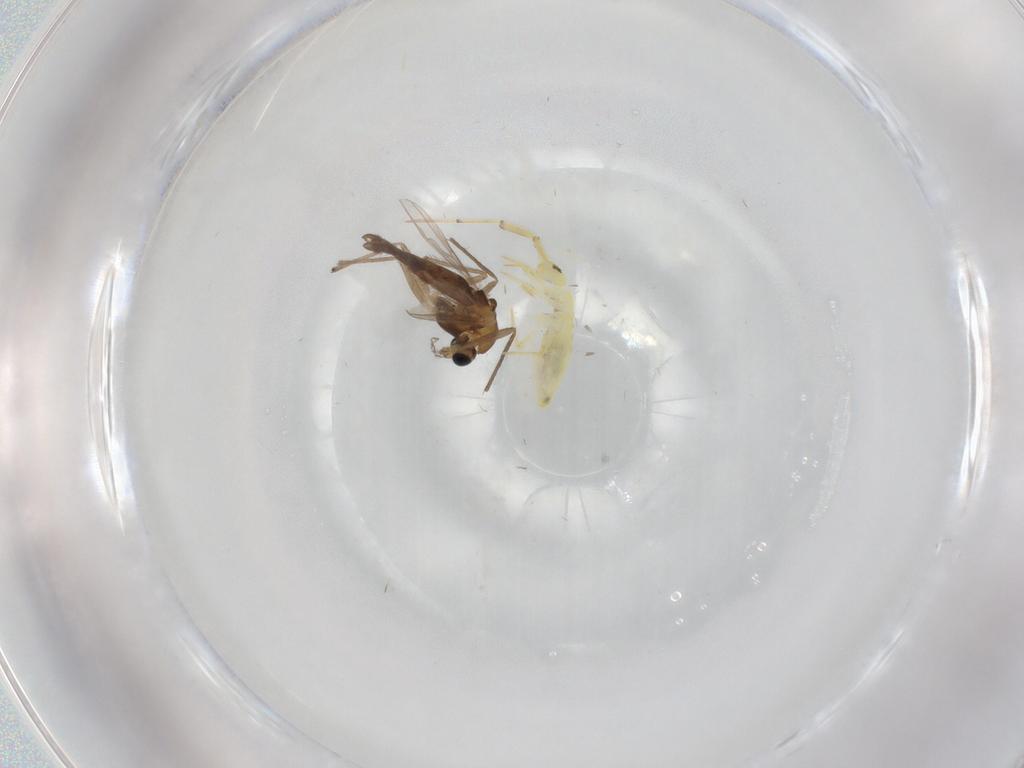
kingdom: Animalia
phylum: Arthropoda
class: Insecta
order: Diptera
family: Chironomidae
